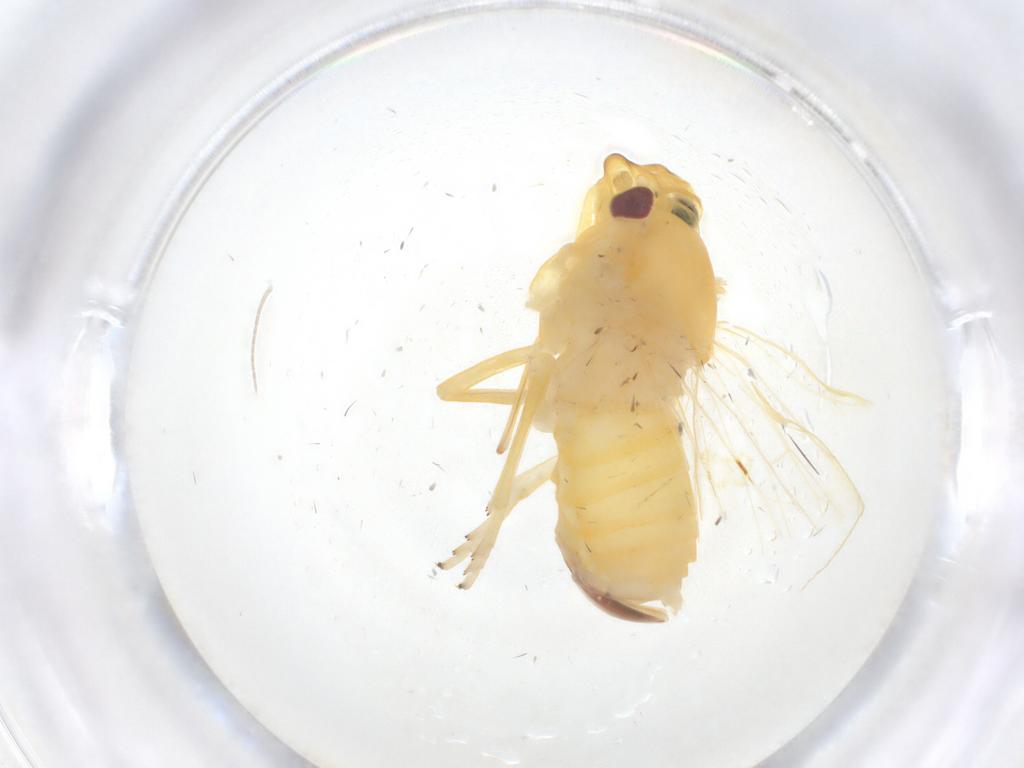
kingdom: Animalia
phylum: Arthropoda
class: Insecta
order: Hemiptera
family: Cixiidae
